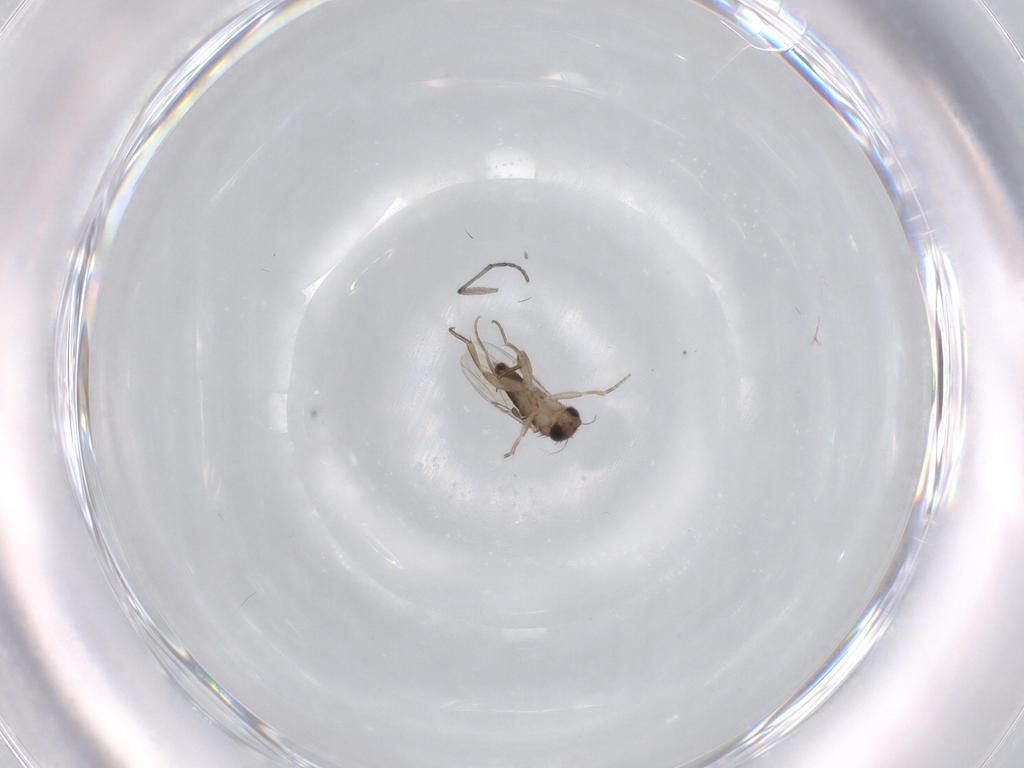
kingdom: Animalia
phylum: Arthropoda
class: Insecta
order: Diptera
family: Sciaridae
